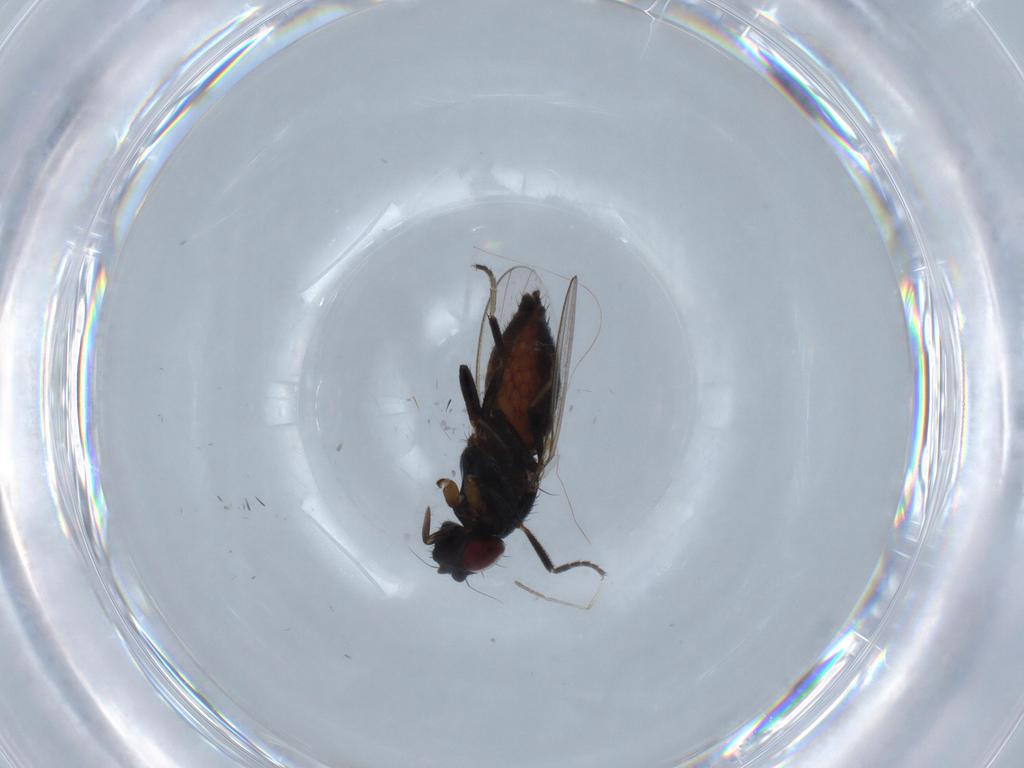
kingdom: Animalia
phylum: Arthropoda
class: Insecta
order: Diptera
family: Milichiidae
